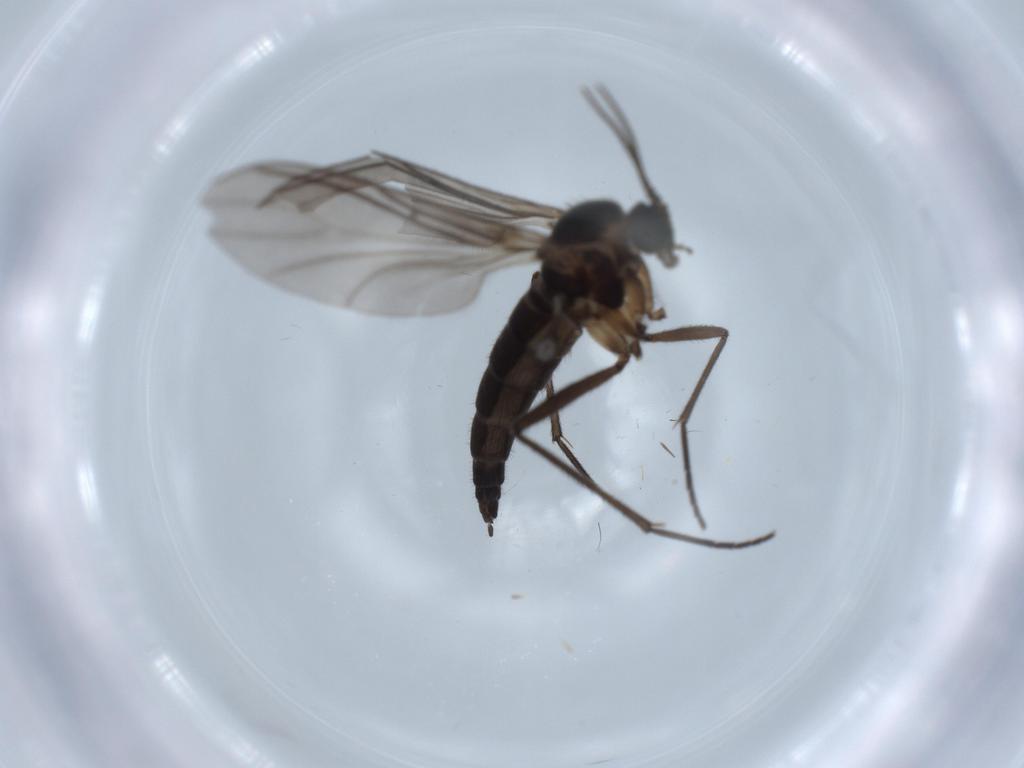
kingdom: Animalia
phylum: Arthropoda
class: Insecta
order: Diptera
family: Sciaridae
